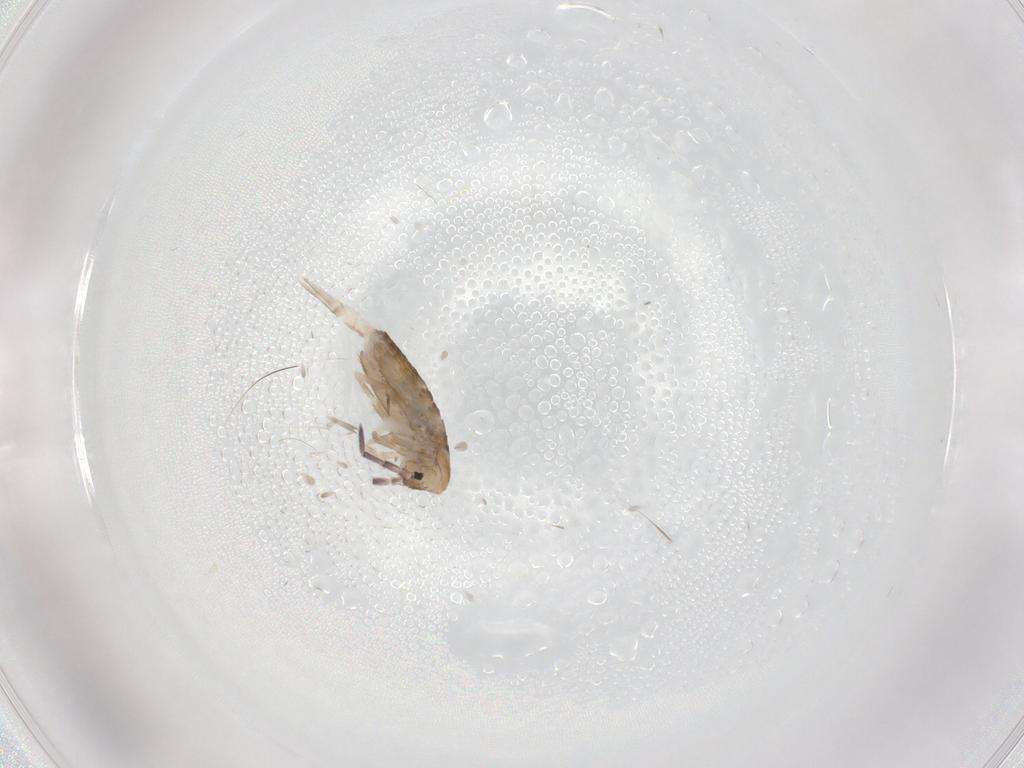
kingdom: Animalia
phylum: Arthropoda
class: Collembola
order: Entomobryomorpha
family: Entomobryidae
